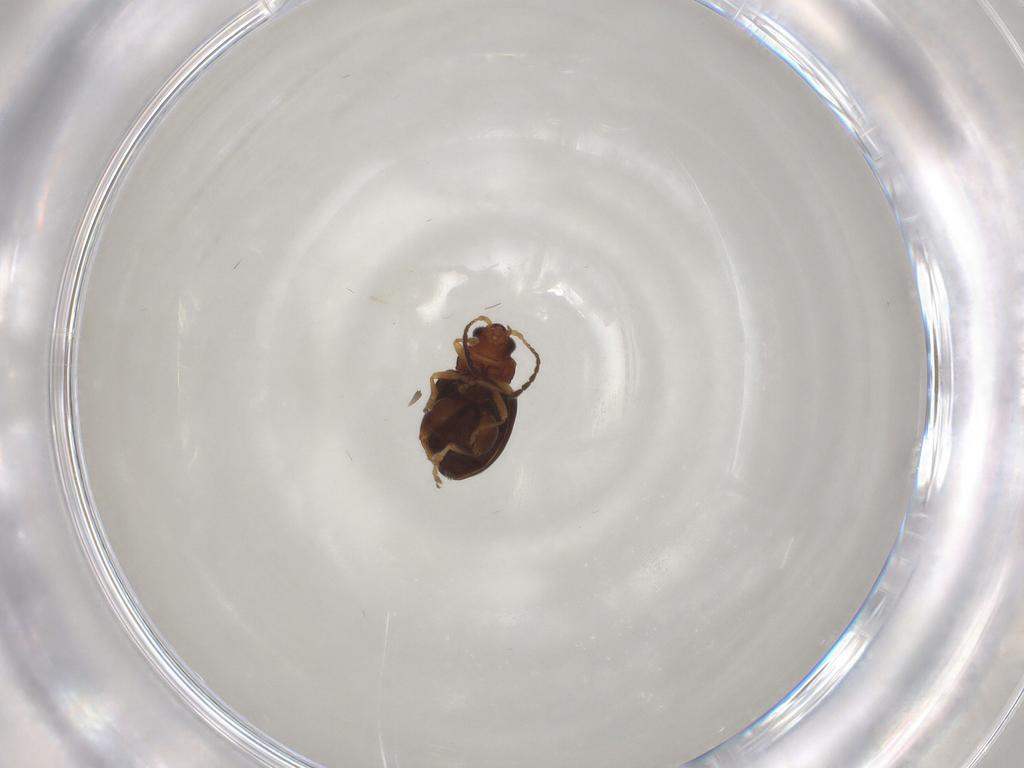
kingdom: Animalia
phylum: Arthropoda
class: Insecta
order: Coleoptera
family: Chrysomelidae
